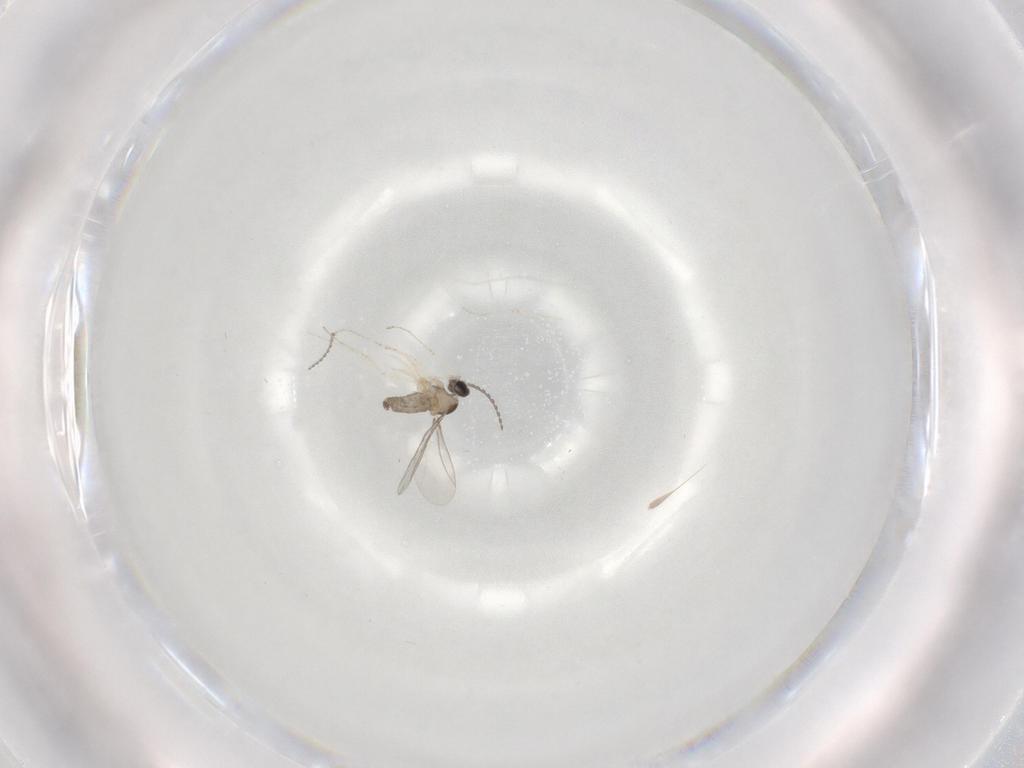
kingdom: Animalia
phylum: Arthropoda
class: Insecta
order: Diptera
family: Cecidomyiidae
